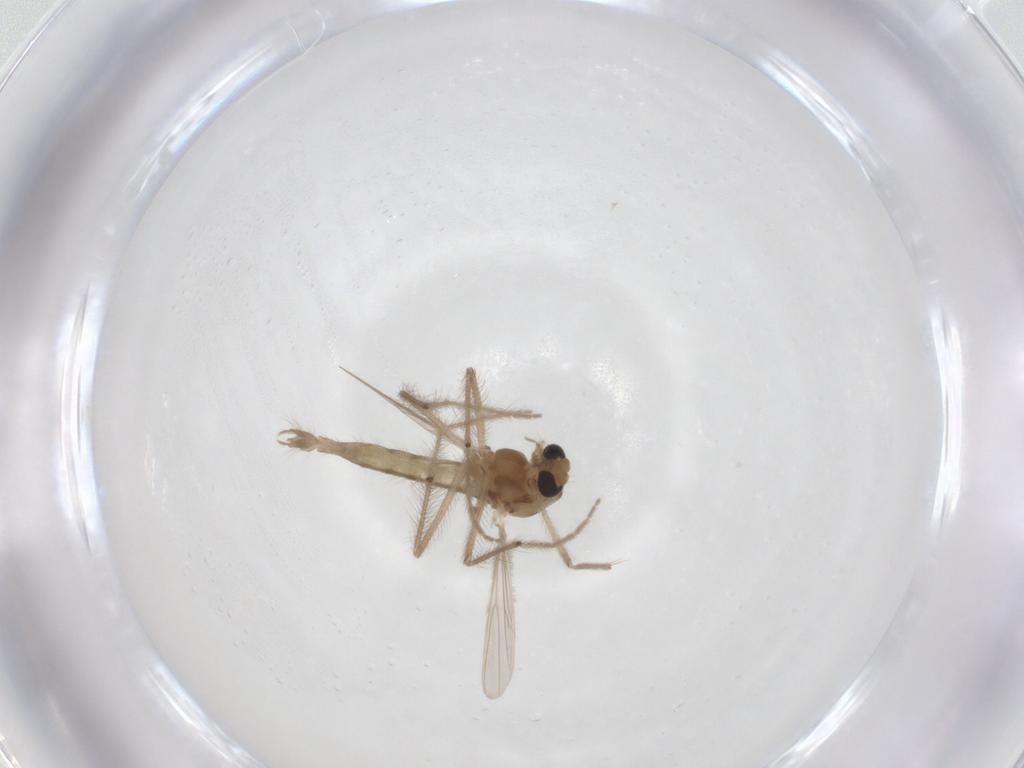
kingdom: Animalia
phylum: Arthropoda
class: Insecta
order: Diptera
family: Chironomidae
